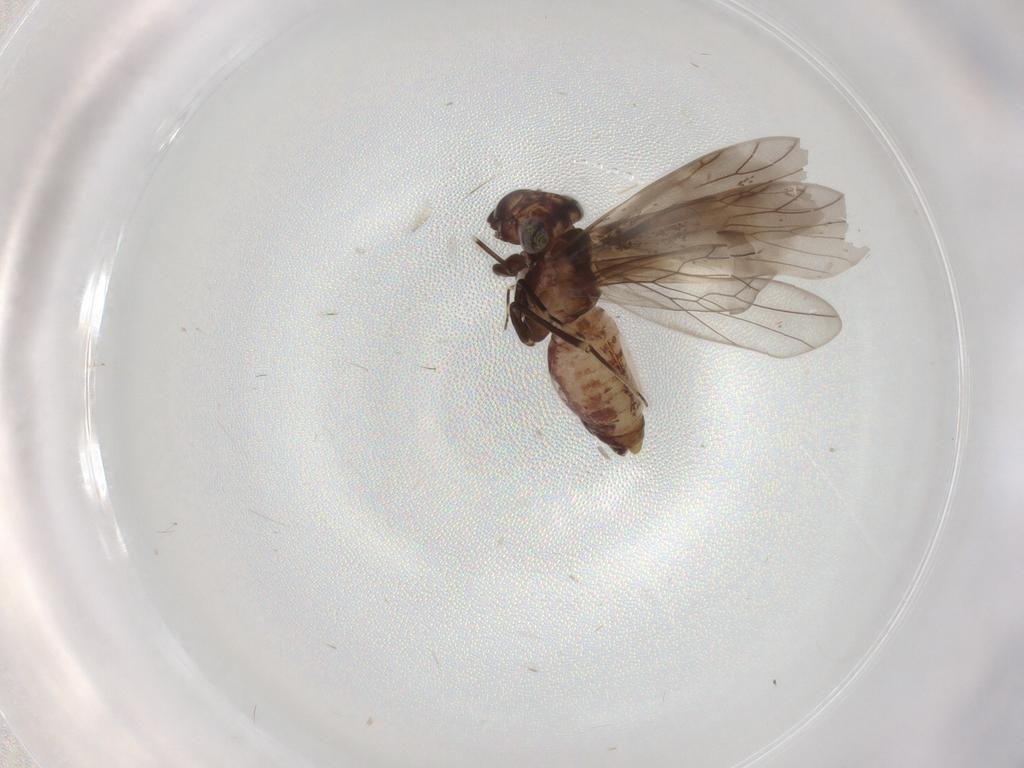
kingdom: Animalia
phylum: Arthropoda
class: Insecta
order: Psocodea
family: Amphientomidae
